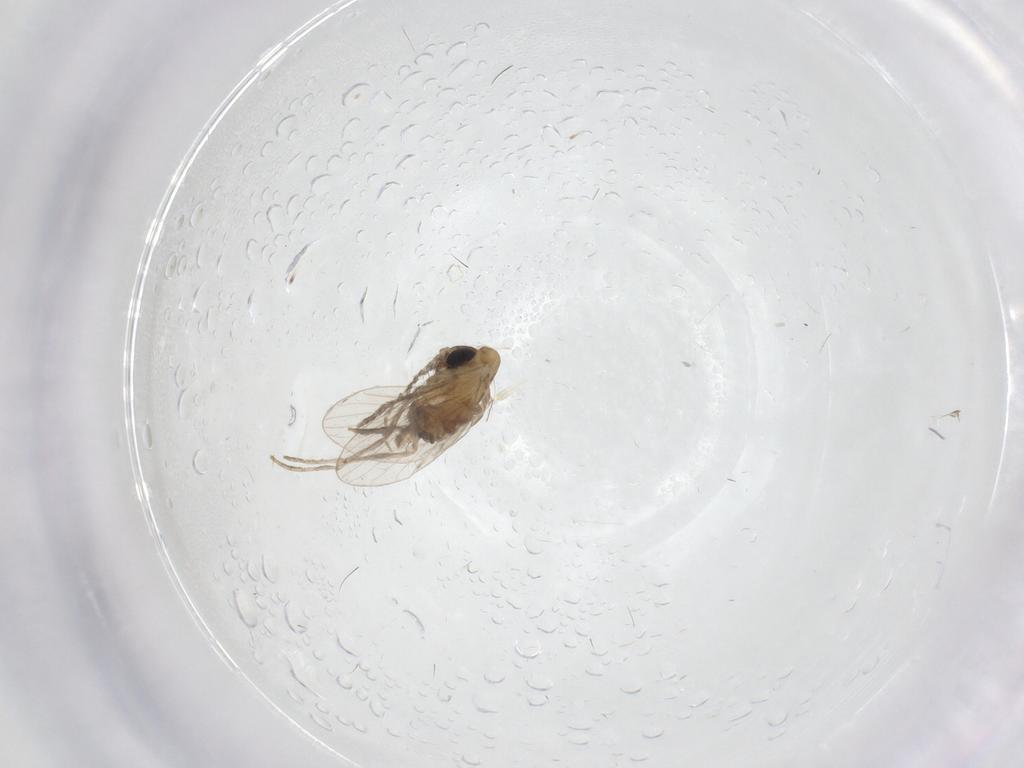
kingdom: Animalia
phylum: Arthropoda
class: Insecta
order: Diptera
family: Psychodidae
